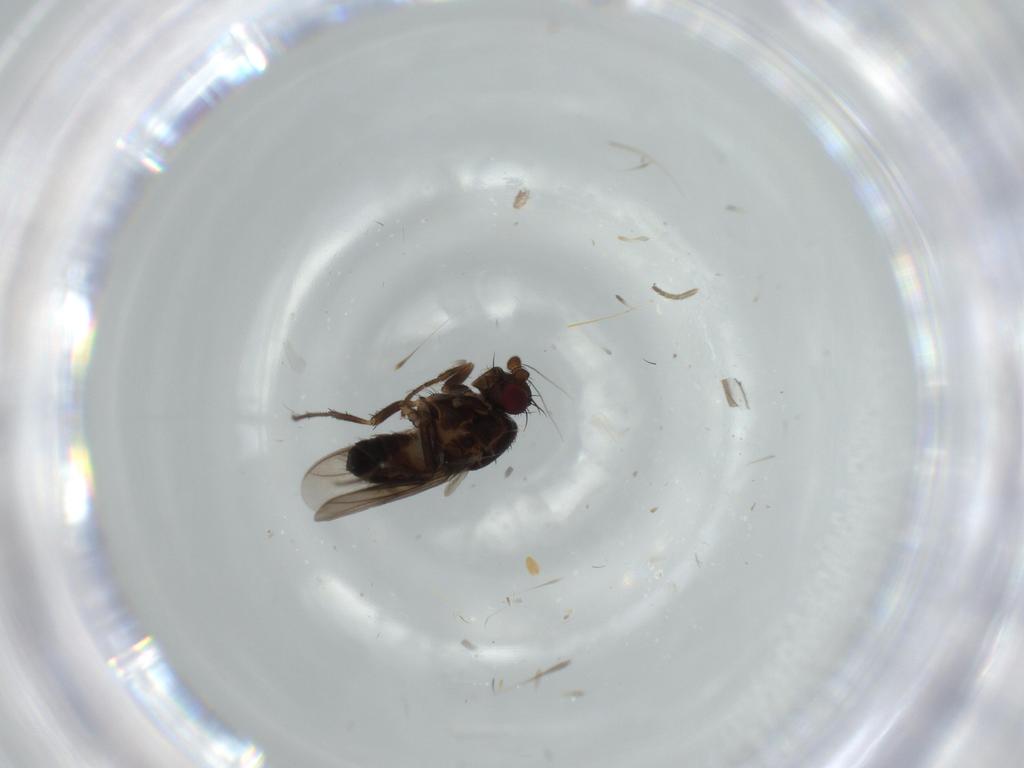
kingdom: Animalia
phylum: Arthropoda
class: Insecta
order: Diptera
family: Sphaeroceridae
